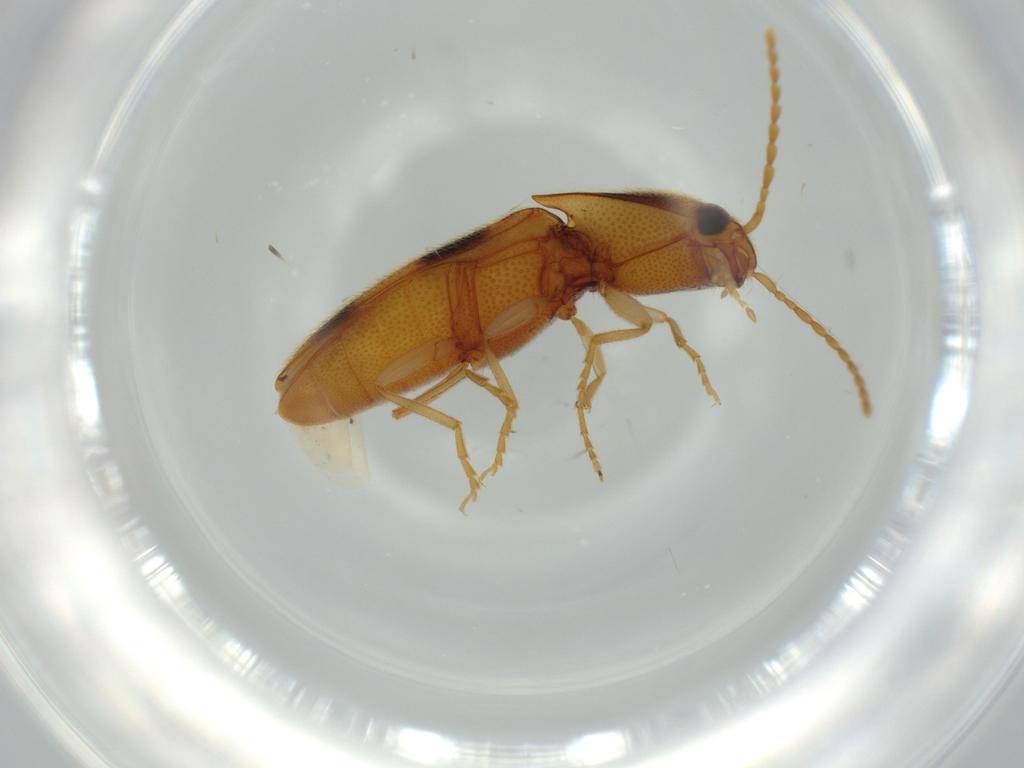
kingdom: Animalia
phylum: Arthropoda
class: Insecta
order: Coleoptera
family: Elateridae
